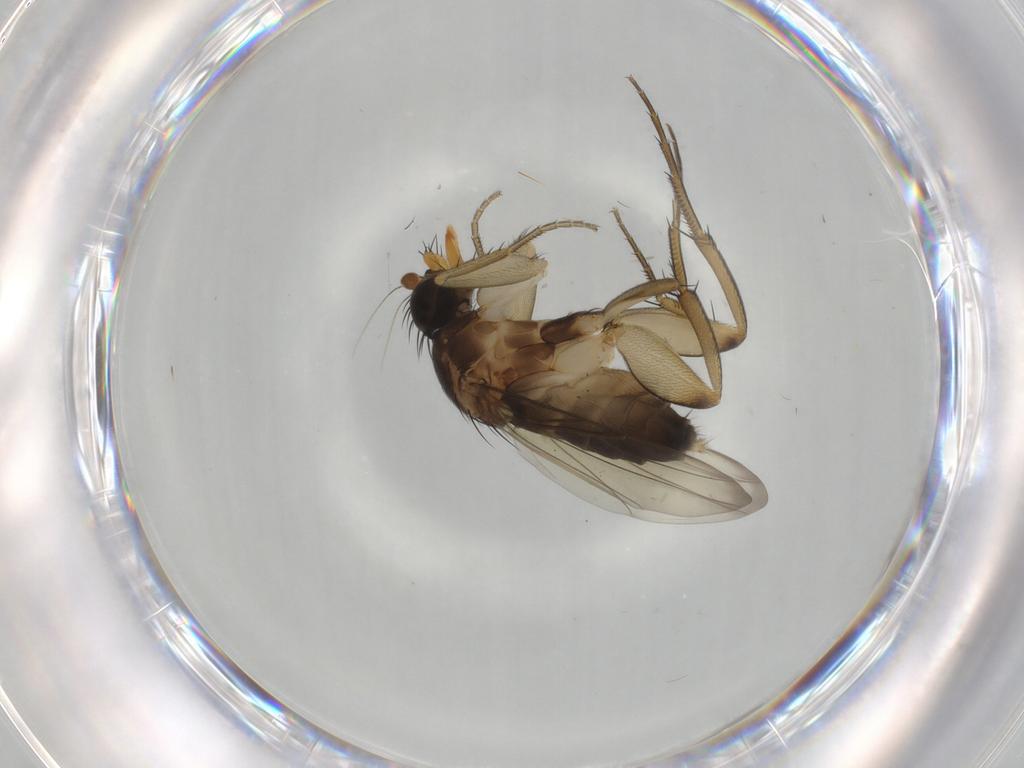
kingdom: Animalia
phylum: Arthropoda
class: Insecta
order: Diptera
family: Phoridae
